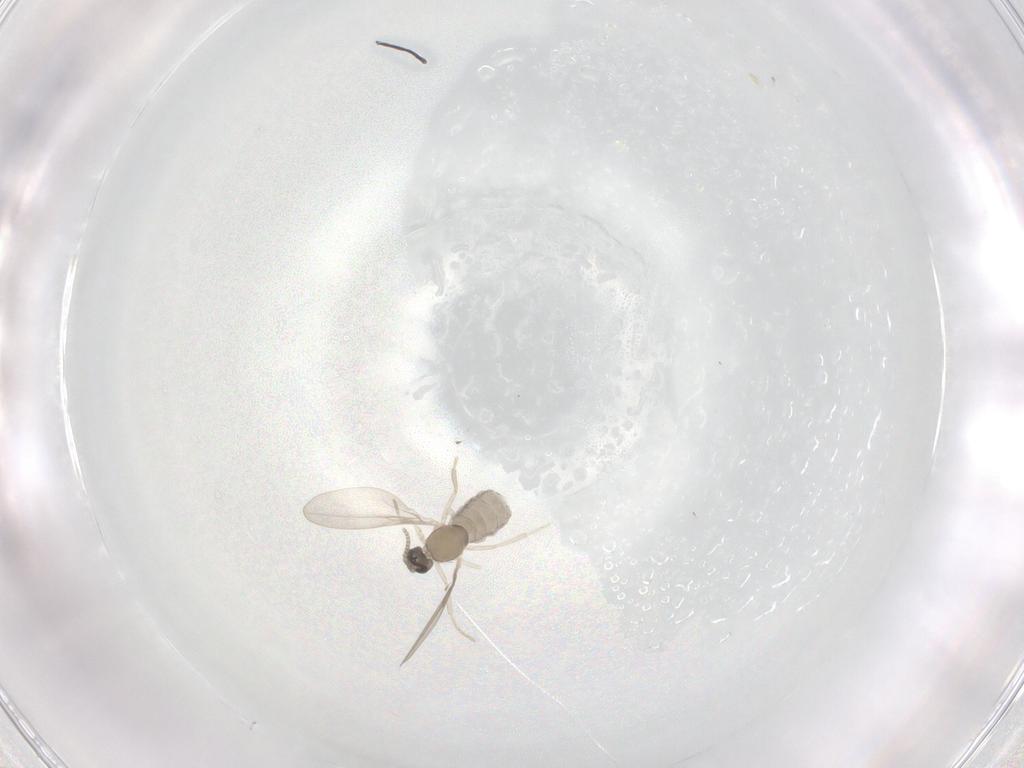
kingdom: Animalia
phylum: Arthropoda
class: Insecta
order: Diptera
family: Cecidomyiidae
